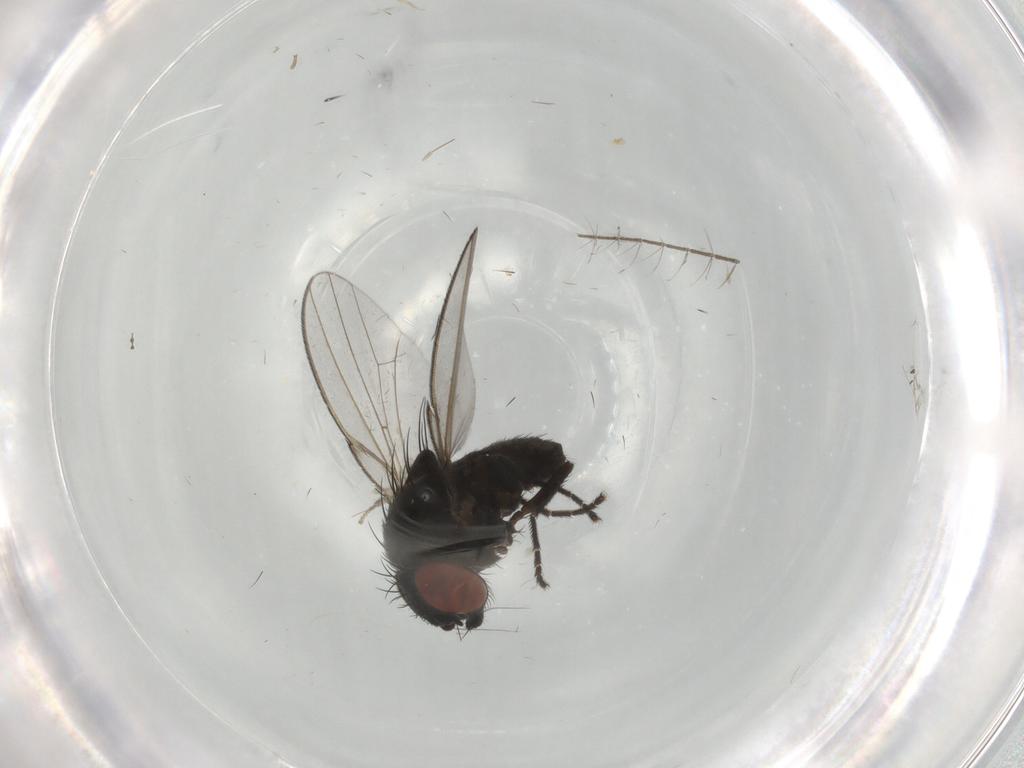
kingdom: Animalia
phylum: Arthropoda
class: Insecta
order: Diptera
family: Milichiidae
